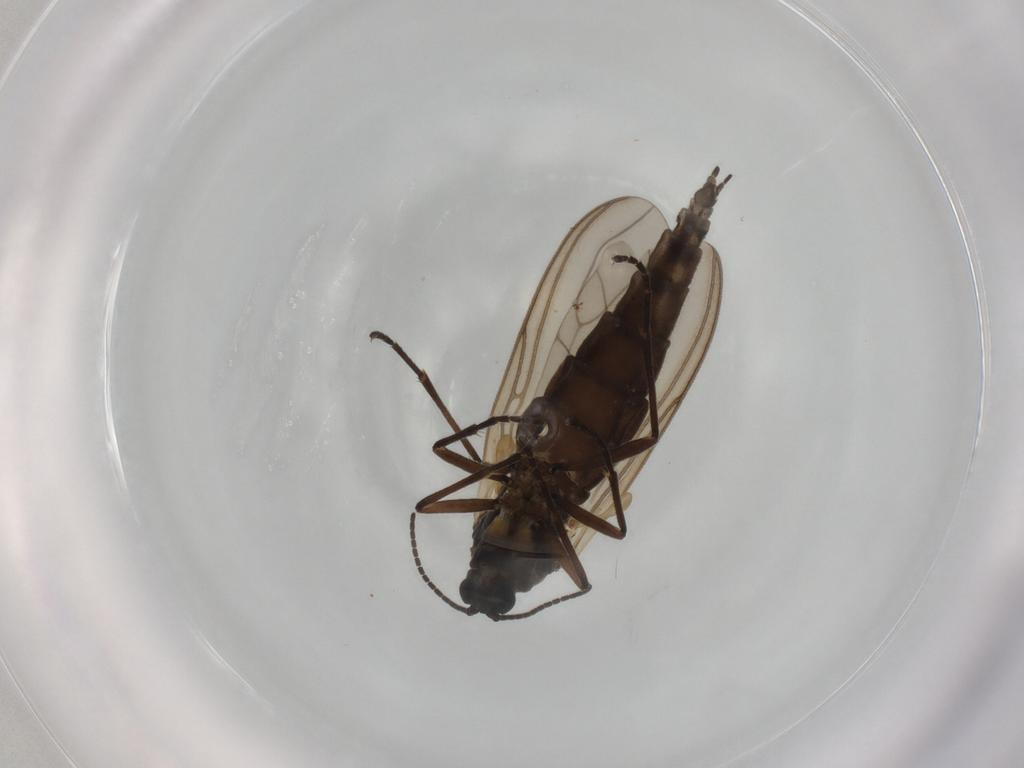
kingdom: Animalia
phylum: Arthropoda
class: Insecta
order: Diptera
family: Sciaridae
